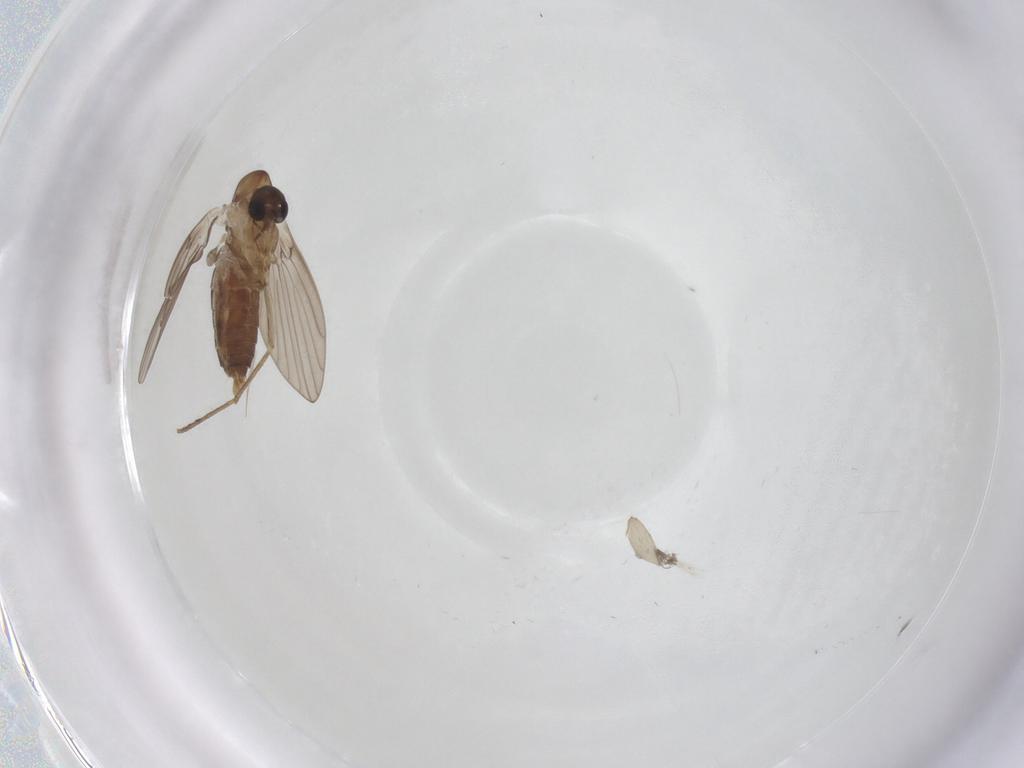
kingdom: Animalia
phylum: Arthropoda
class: Insecta
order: Diptera
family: Sphaeroceridae
